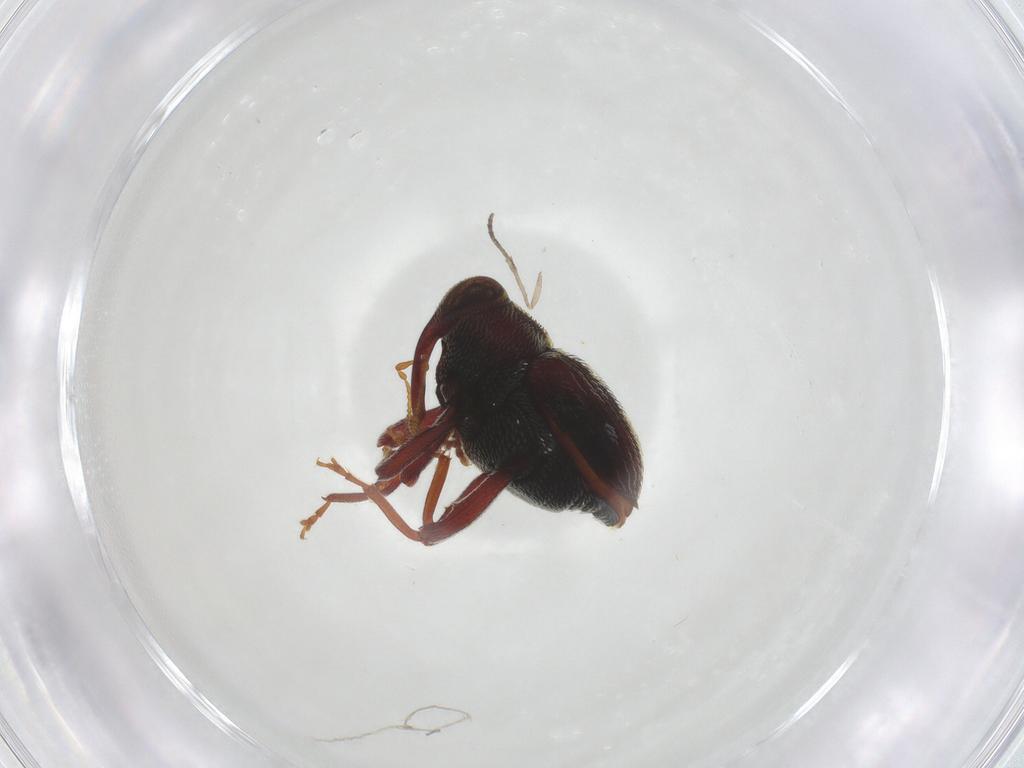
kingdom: Animalia
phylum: Arthropoda
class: Insecta
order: Coleoptera
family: Curculionidae
